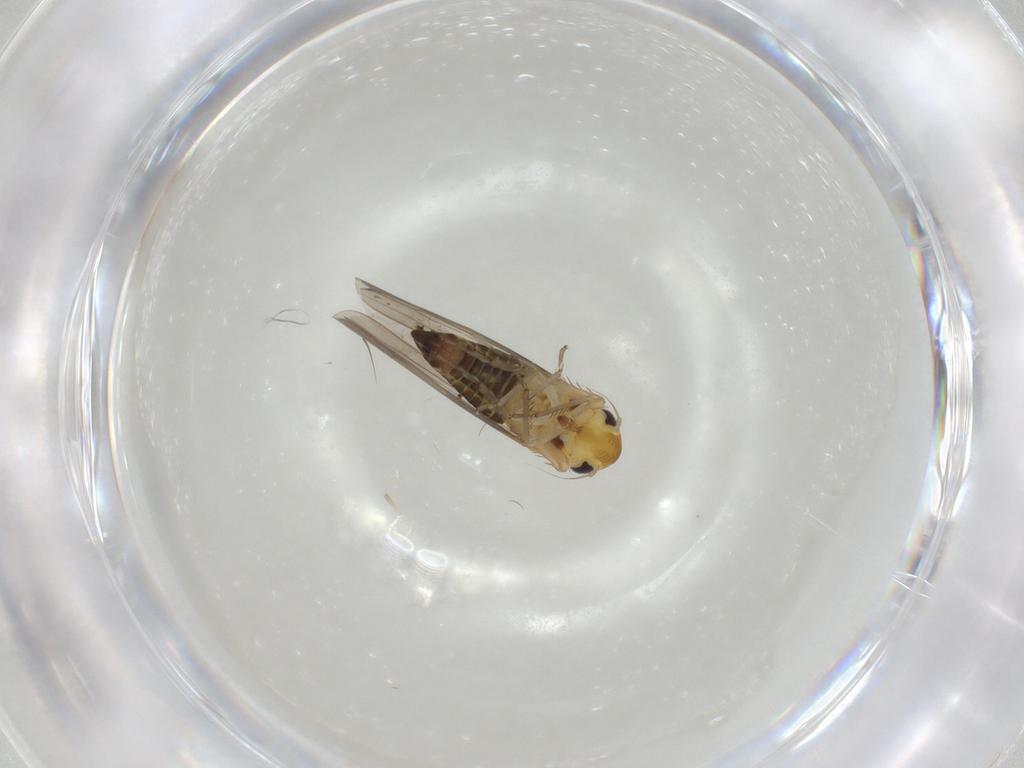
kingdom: Animalia
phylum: Arthropoda
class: Insecta
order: Hemiptera
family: Cicadellidae
